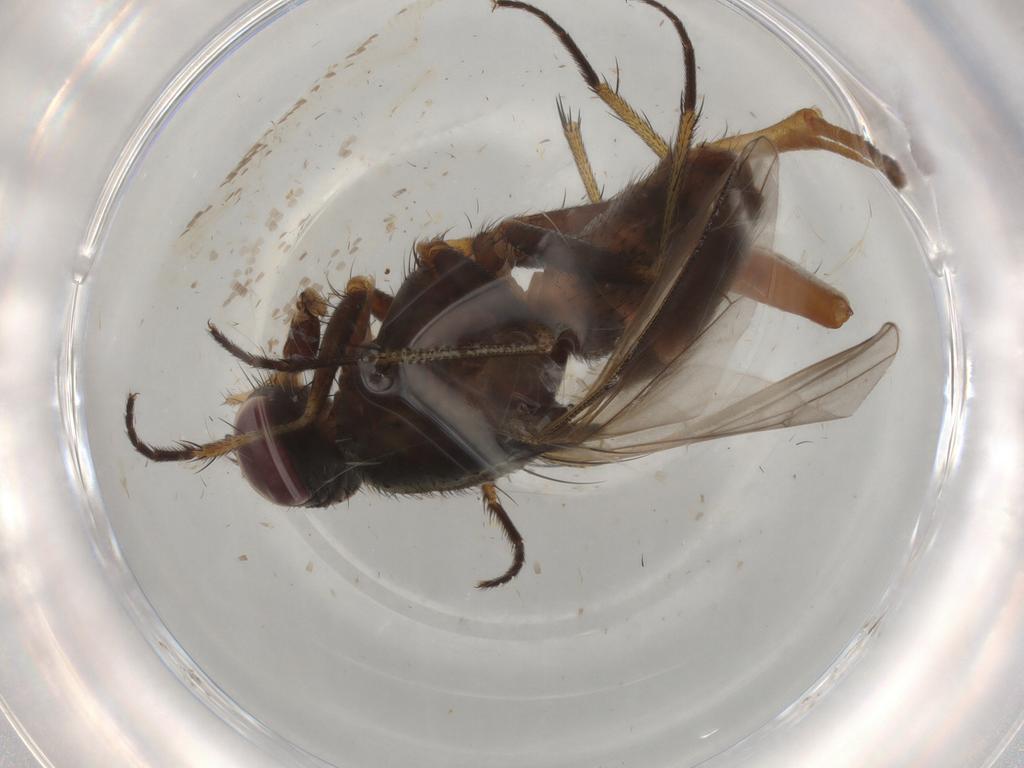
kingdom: Animalia
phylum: Arthropoda
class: Insecta
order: Diptera
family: Muscidae
